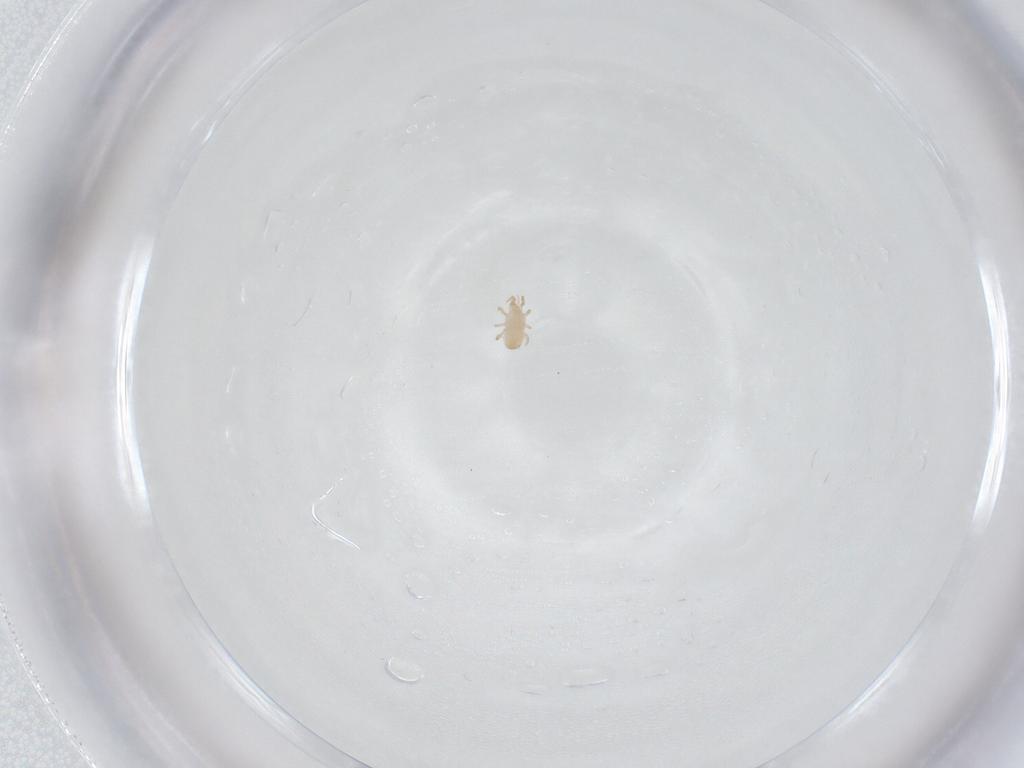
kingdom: Animalia
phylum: Arthropoda
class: Arachnida
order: Mesostigmata
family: Ascidae
